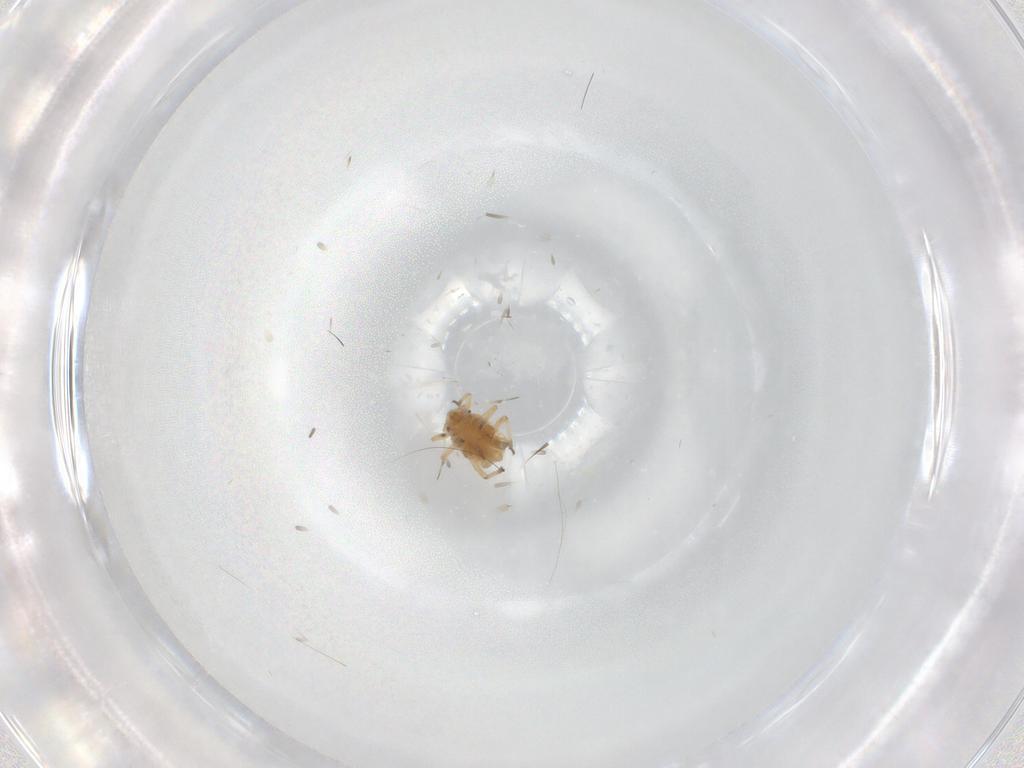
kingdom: Animalia
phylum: Arthropoda
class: Insecta
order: Hemiptera
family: Aphididae
